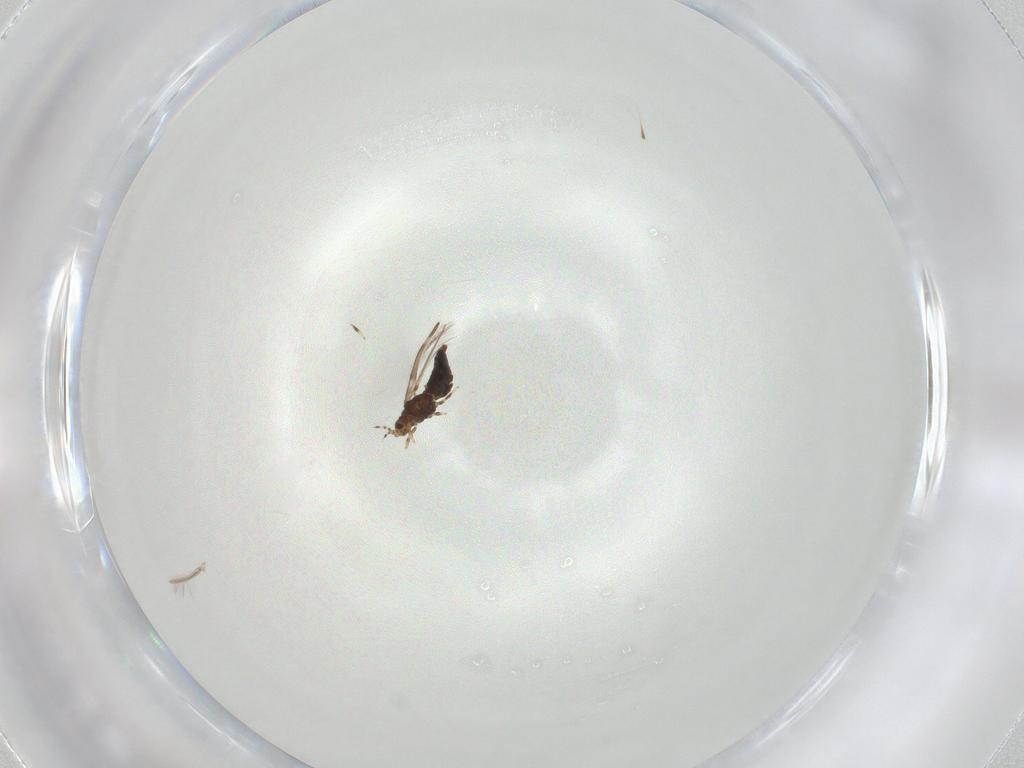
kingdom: Animalia
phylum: Arthropoda
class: Insecta
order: Thysanoptera
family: Thripidae
